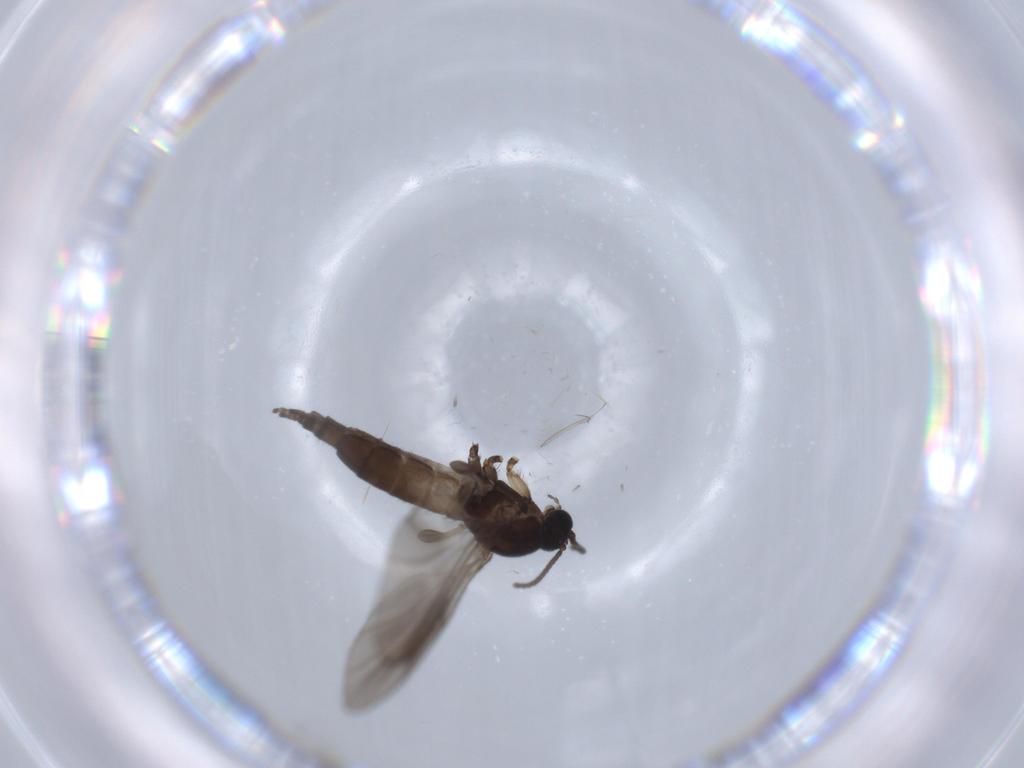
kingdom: Animalia
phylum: Arthropoda
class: Insecta
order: Diptera
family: Sciaridae
